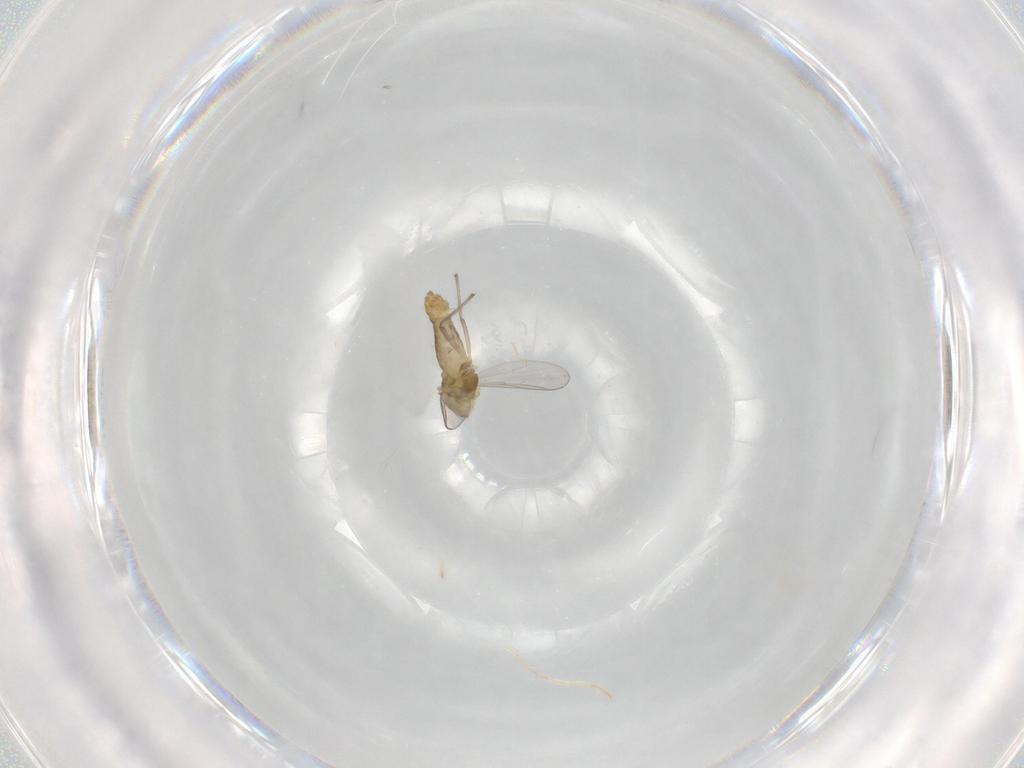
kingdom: Animalia
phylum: Arthropoda
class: Insecta
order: Diptera
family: Chironomidae
